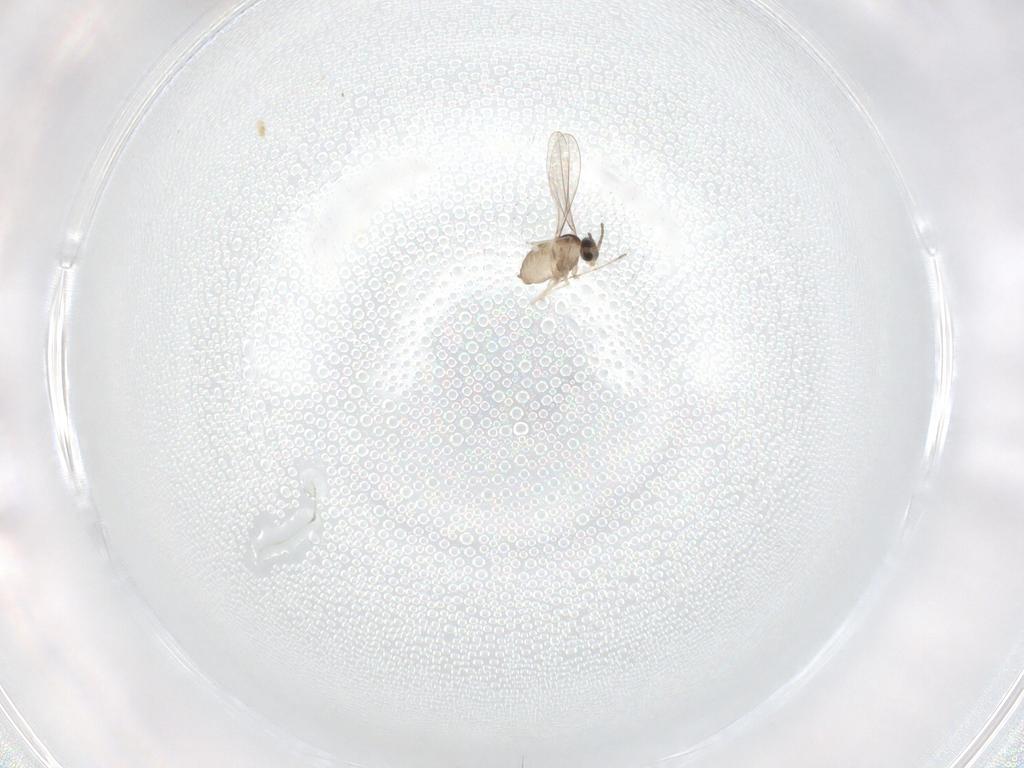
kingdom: Animalia
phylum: Arthropoda
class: Insecta
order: Diptera
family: Cecidomyiidae
